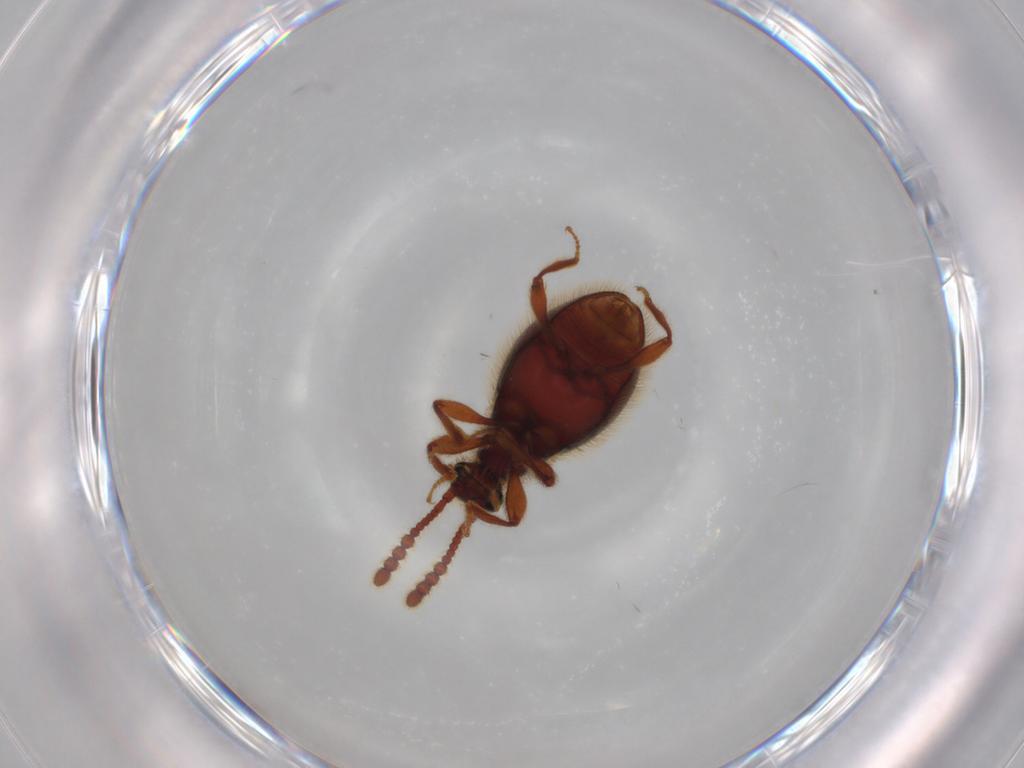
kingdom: Animalia
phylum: Arthropoda
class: Insecta
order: Coleoptera
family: Staphylinidae
